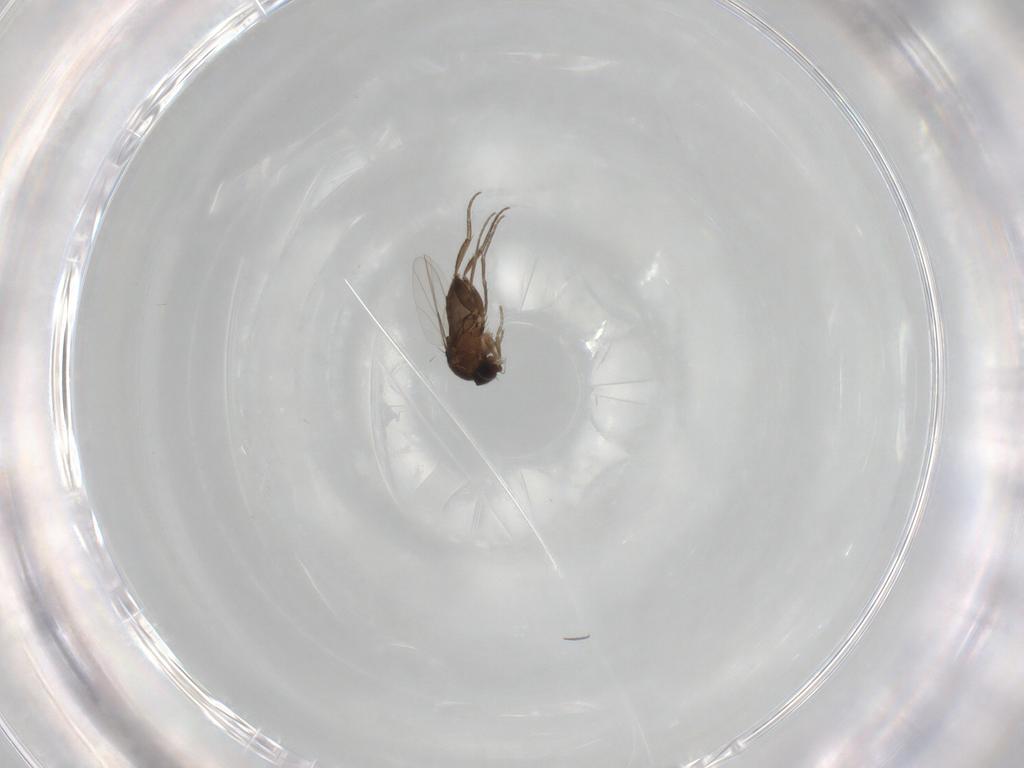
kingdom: Animalia
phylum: Arthropoda
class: Insecta
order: Diptera
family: Phoridae
